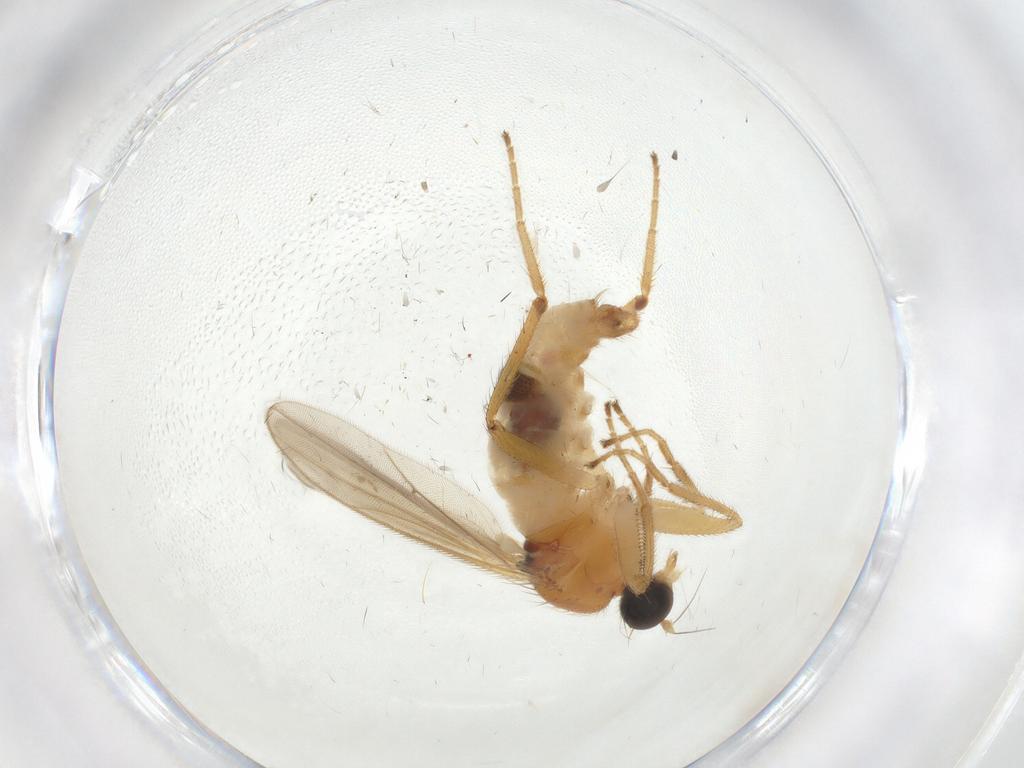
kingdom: Animalia
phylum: Arthropoda
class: Insecta
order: Diptera
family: Hybotidae
